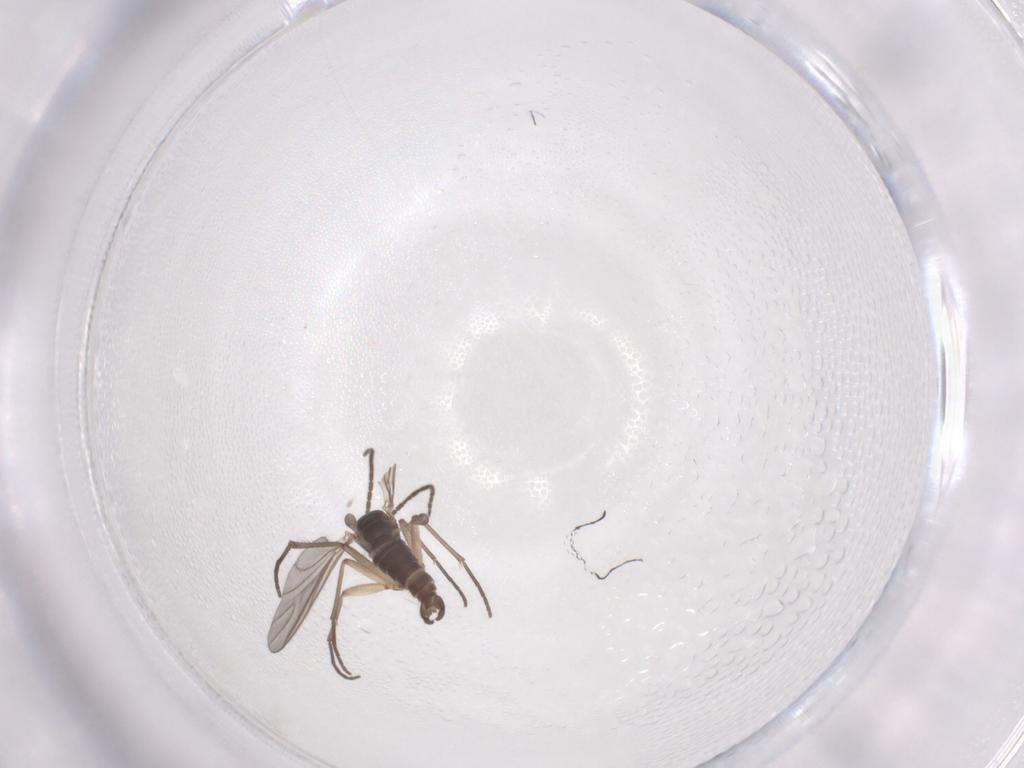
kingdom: Animalia
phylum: Arthropoda
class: Insecta
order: Diptera
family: Sciaridae
